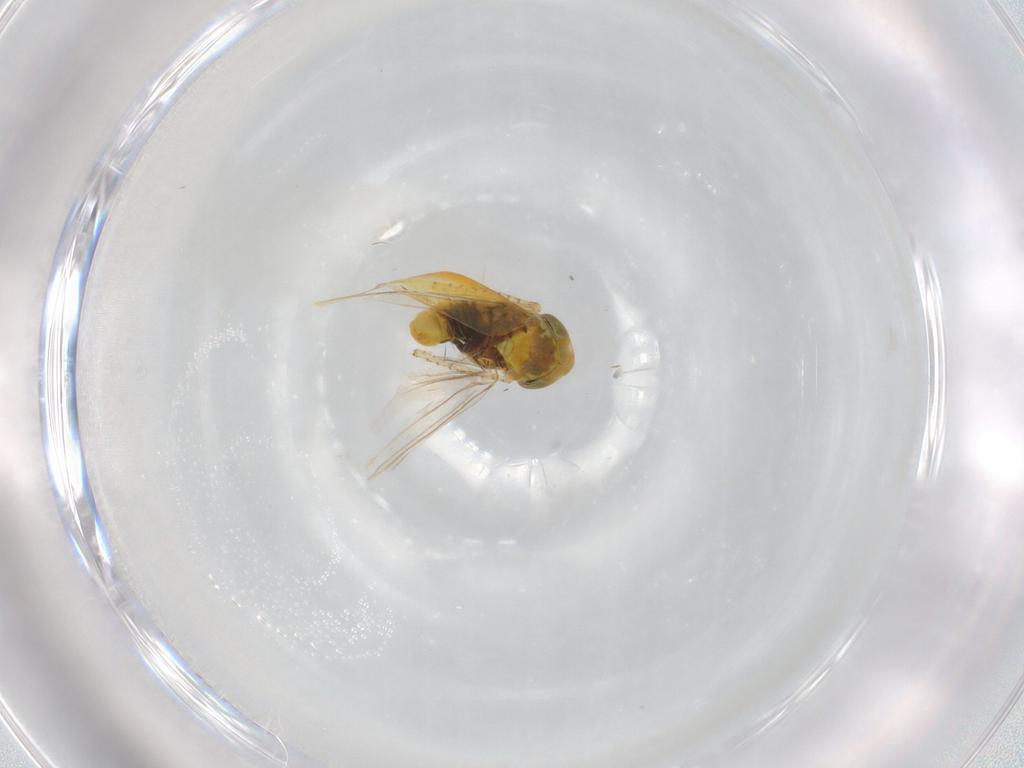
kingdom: Animalia
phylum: Arthropoda
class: Insecta
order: Hemiptera
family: Cicadellidae
